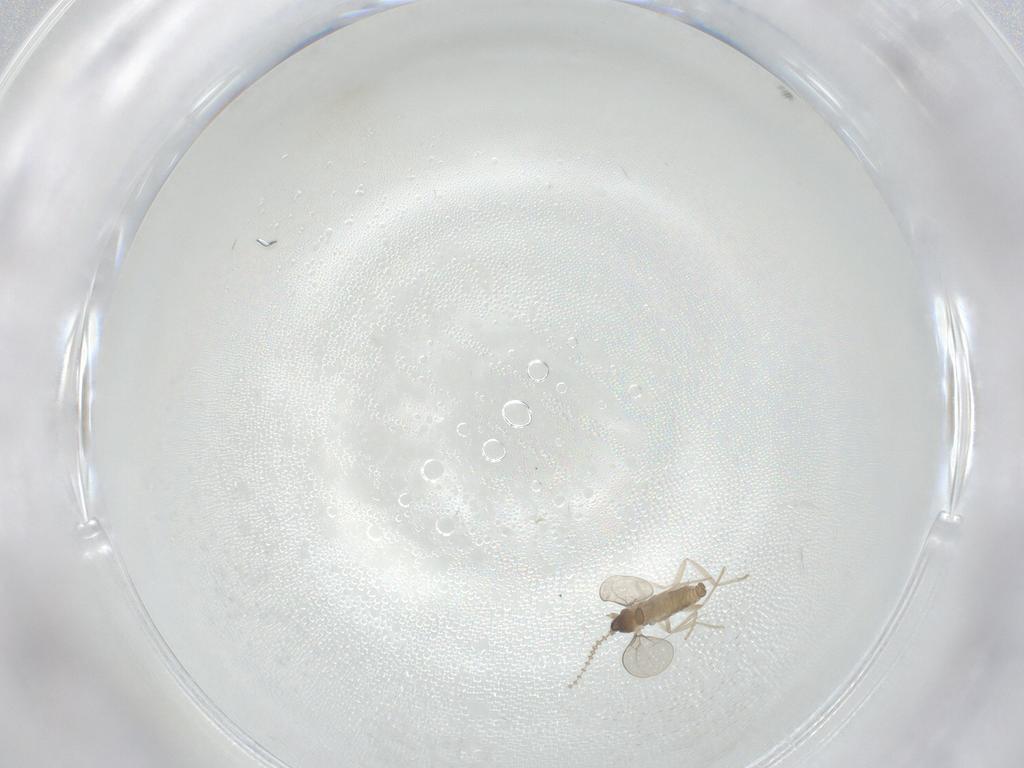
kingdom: Animalia
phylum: Arthropoda
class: Insecta
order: Diptera
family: Cecidomyiidae
